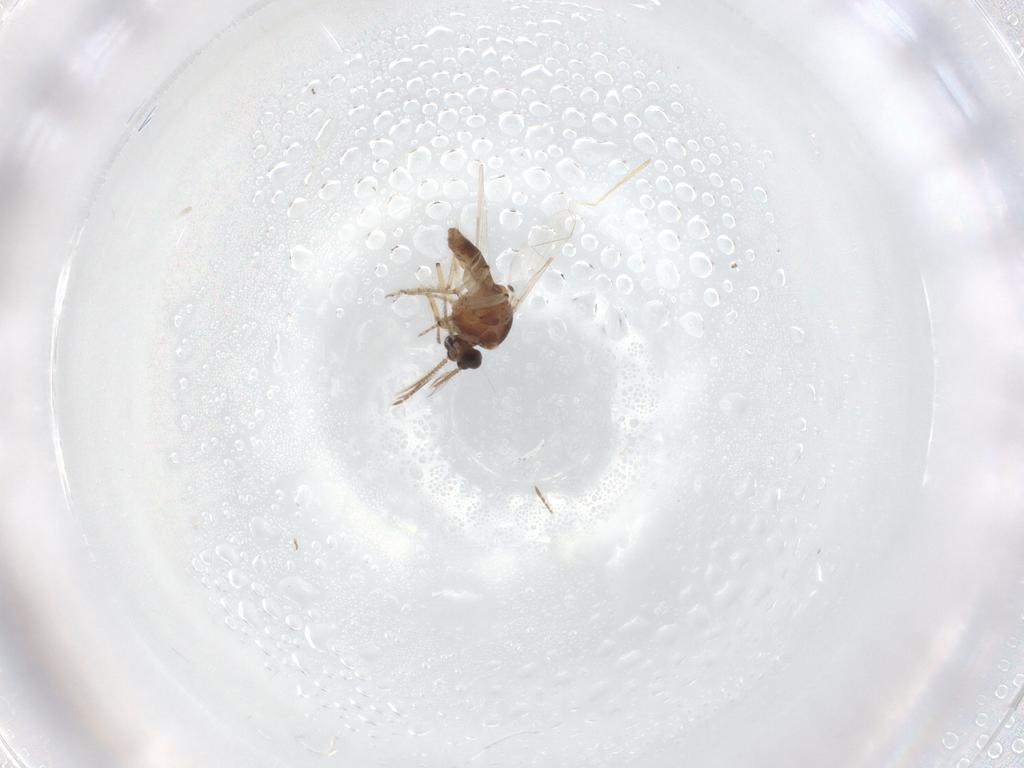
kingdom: Animalia
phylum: Arthropoda
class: Insecta
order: Diptera
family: Ceratopogonidae
